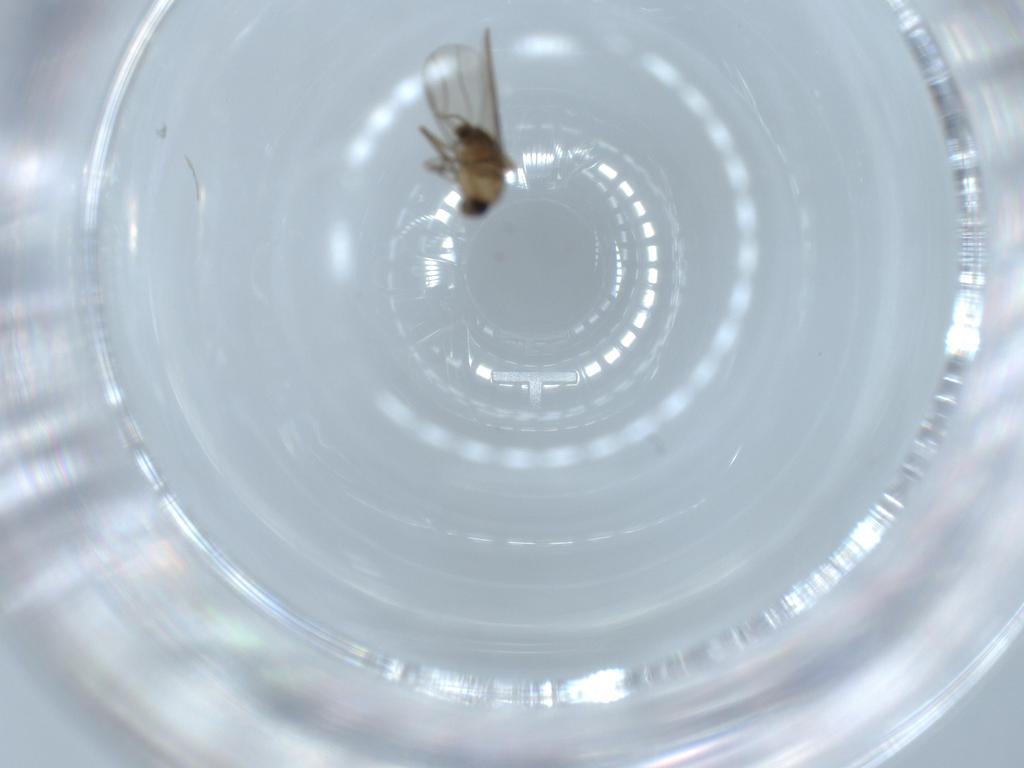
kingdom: Animalia
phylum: Arthropoda
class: Insecta
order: Diptera
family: Phoridae
